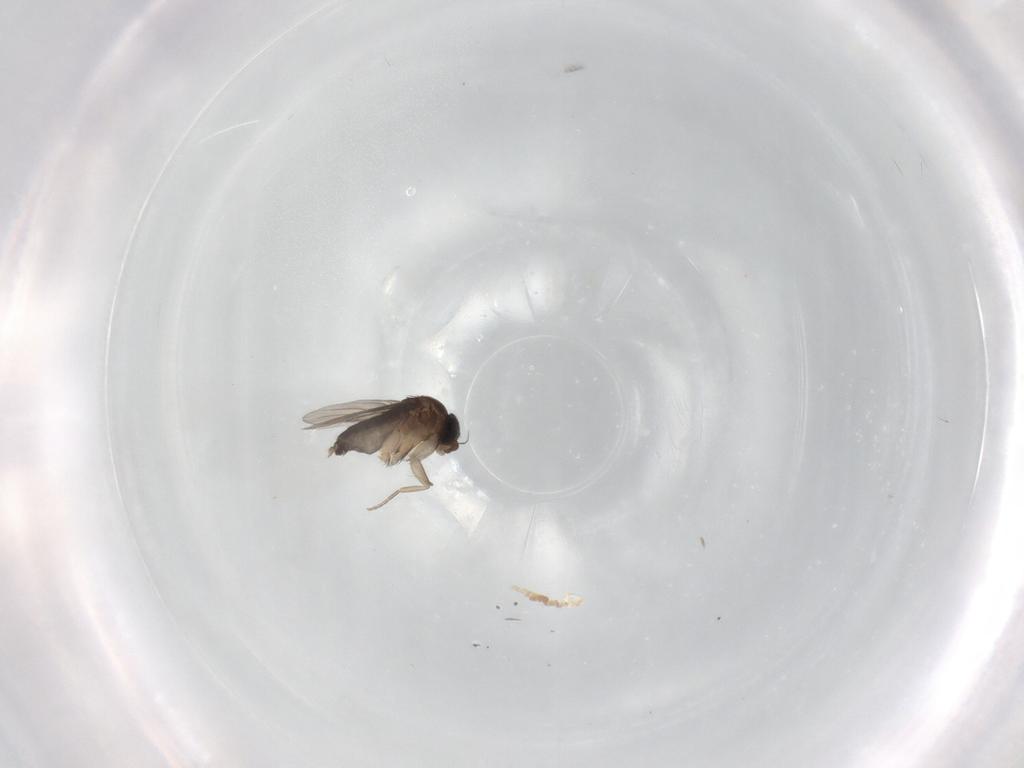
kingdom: Animalia
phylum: Arthropoda
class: Insecta
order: Diptera
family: Phoridae
